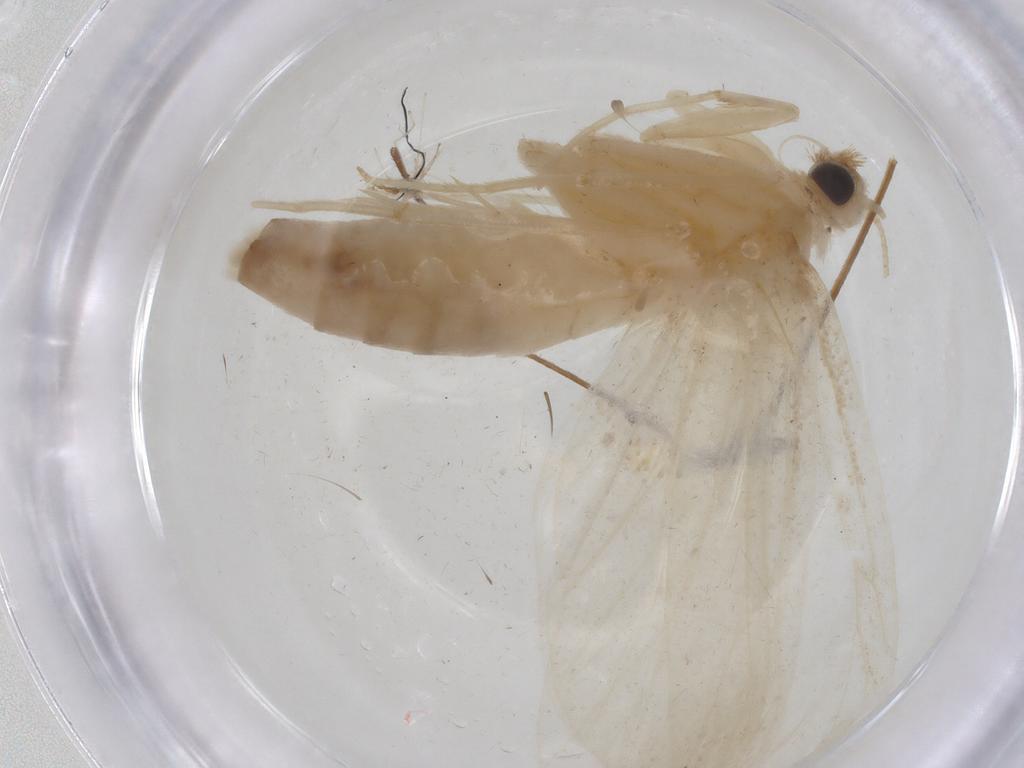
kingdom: Animalia
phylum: Arthropoda
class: Insecta
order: Lepidoptera
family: Crambidae
